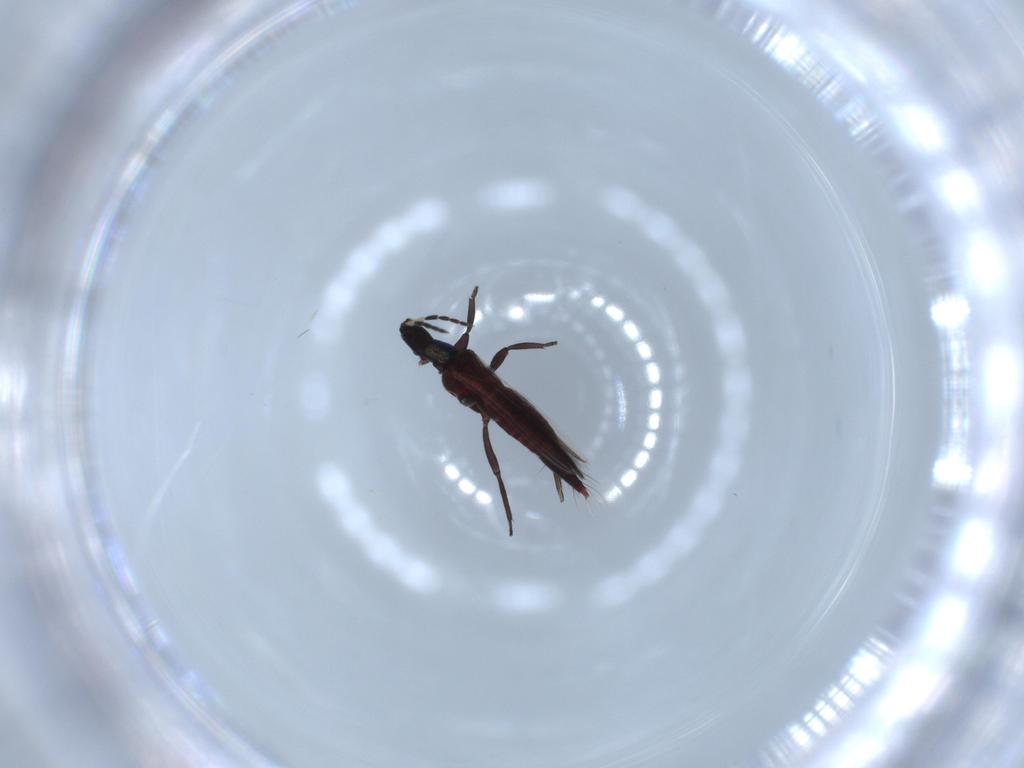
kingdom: Animalia
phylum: Arthropoda
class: Insecta
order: Thysanoptera
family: Aeolothripidae
